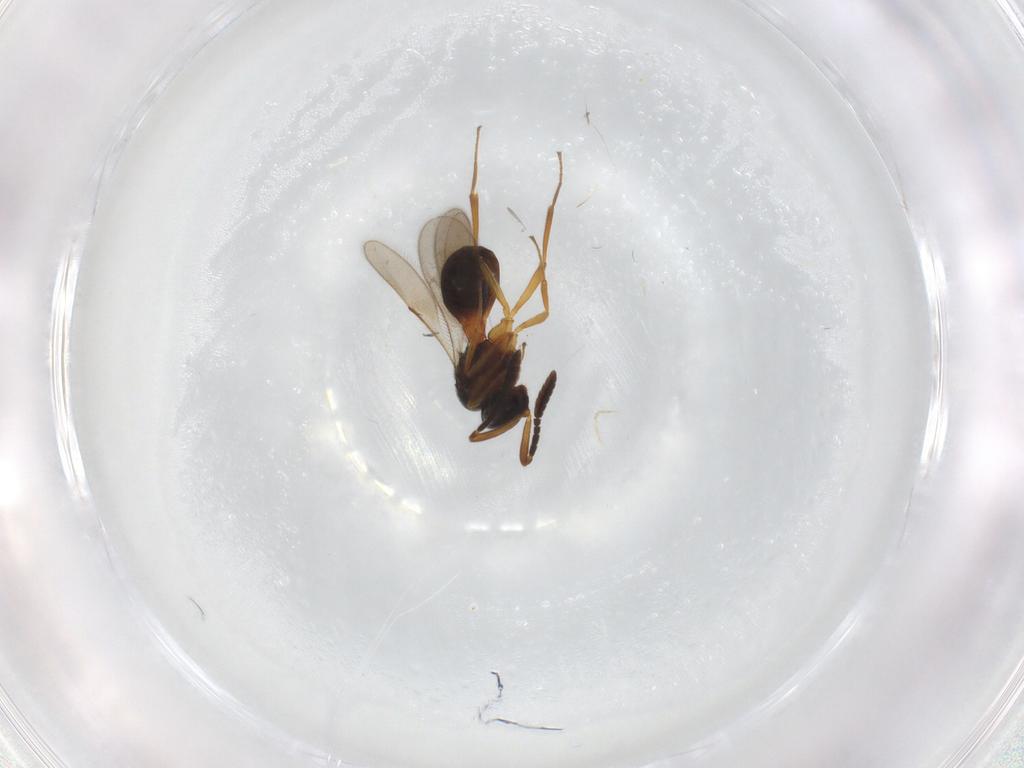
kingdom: Animalia
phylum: Arthropoda
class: Insecta
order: Hymenoptera
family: Scelionidae
